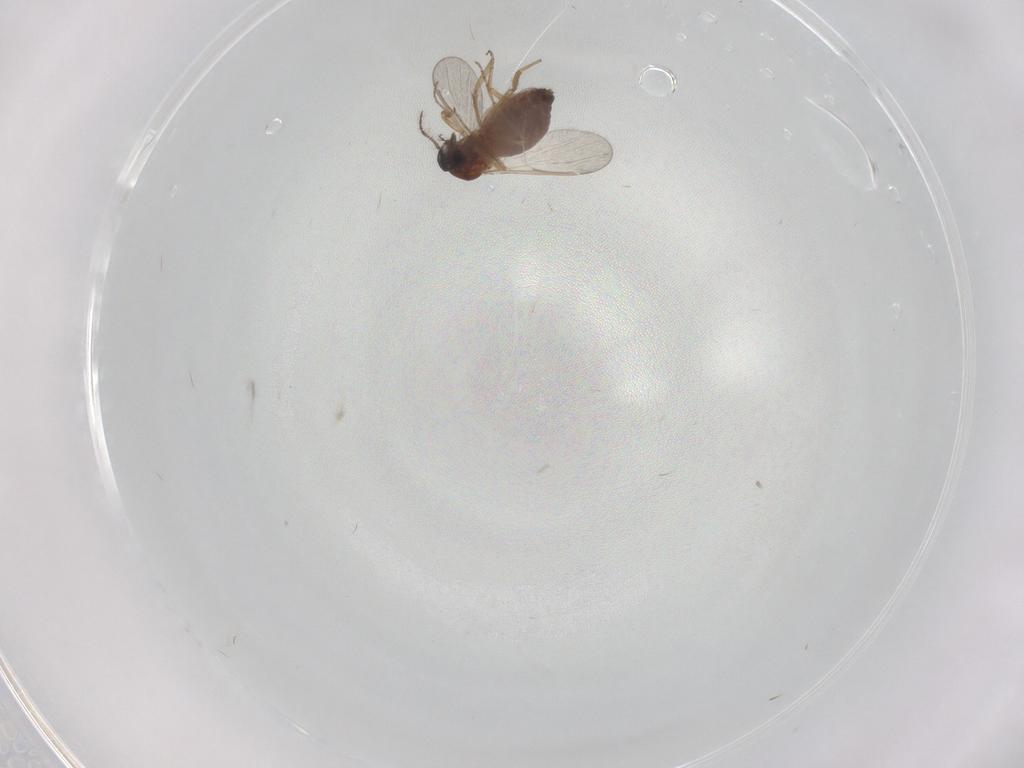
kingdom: Animalia
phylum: Arthropoda
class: Insecta
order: Diptera
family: Ceratopogonidae
